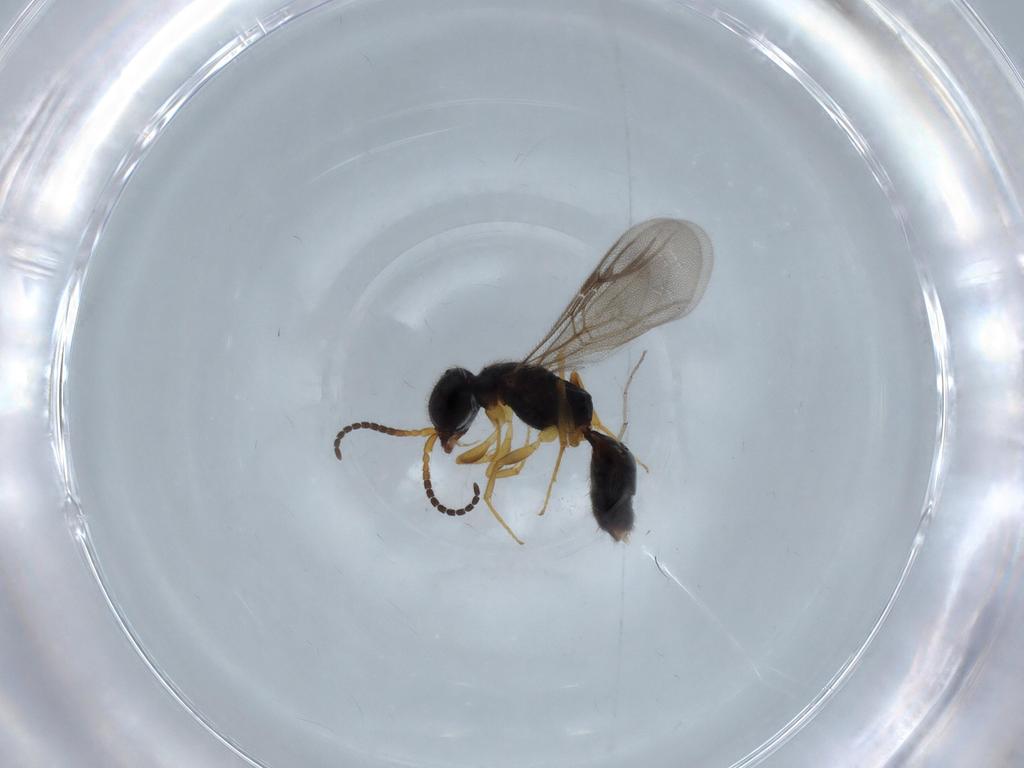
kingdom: Animalia
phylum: Arthropoda
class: Insecta
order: Hymenoptera
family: Bethylidae
